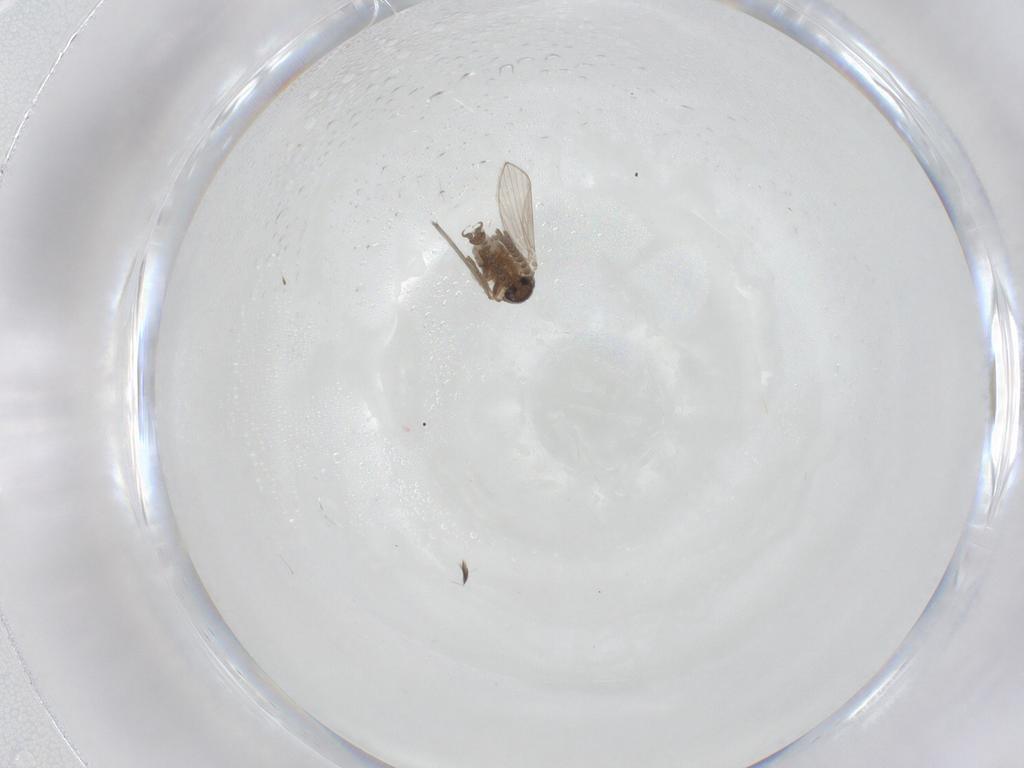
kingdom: Animalia
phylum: Arthropoda
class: Insecta
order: Diptera
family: Psychodidae
